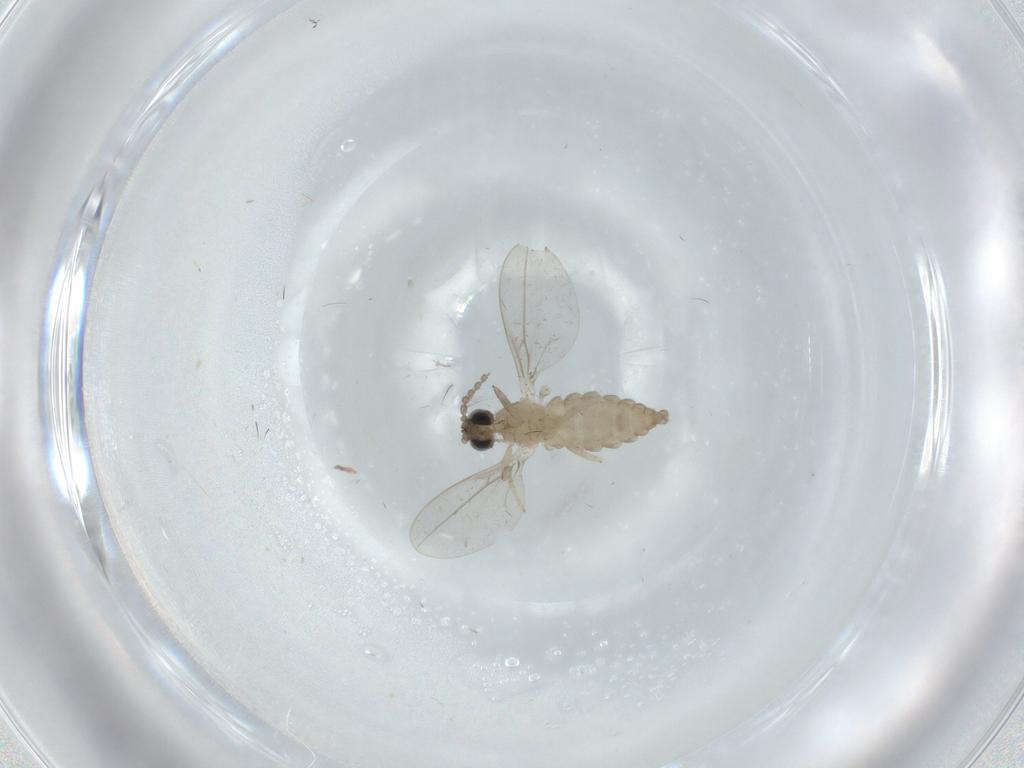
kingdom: Animalia
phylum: Arthropoda
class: Insecta
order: Diptera
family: Cecidomyiidae
